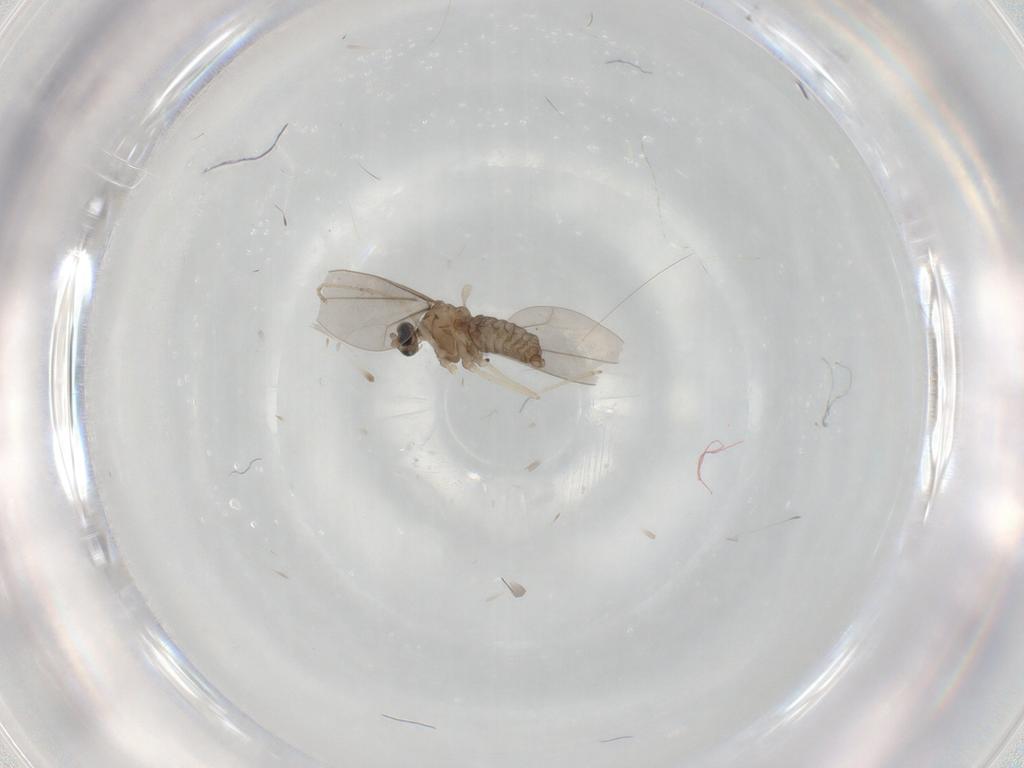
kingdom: Animalia
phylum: Arthropoda
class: Insecta
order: Diptera
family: Cecidomyiidae
